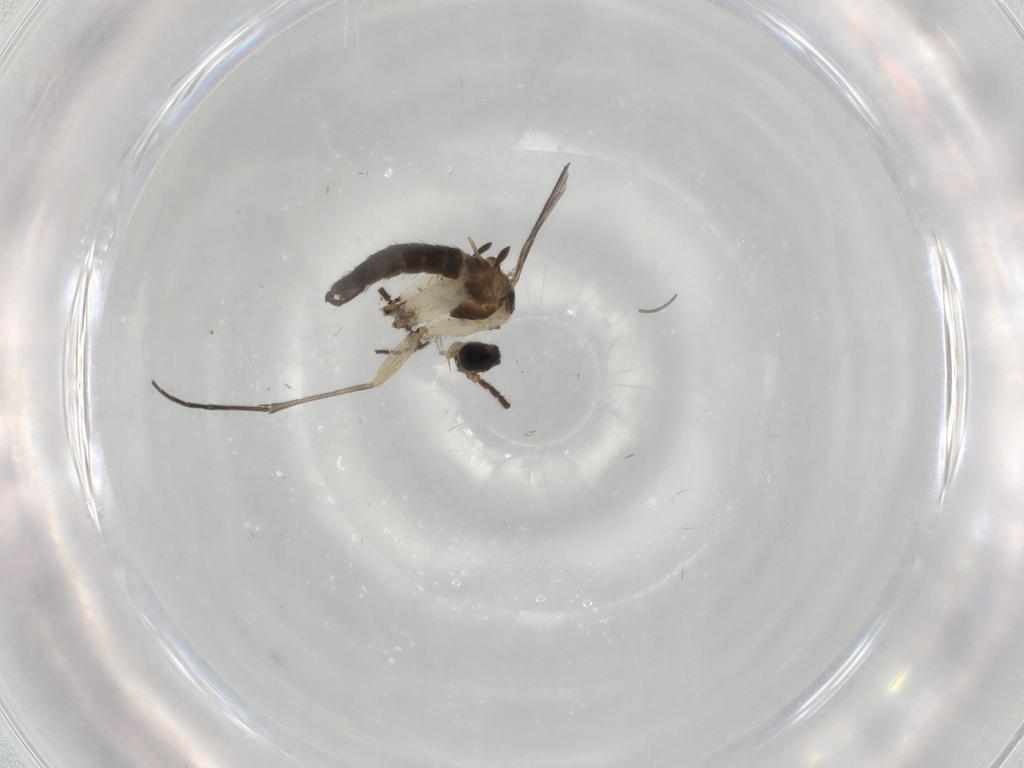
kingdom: Animalia
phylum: Arthropoda
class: Insecta
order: Diptera
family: Sciaridae
